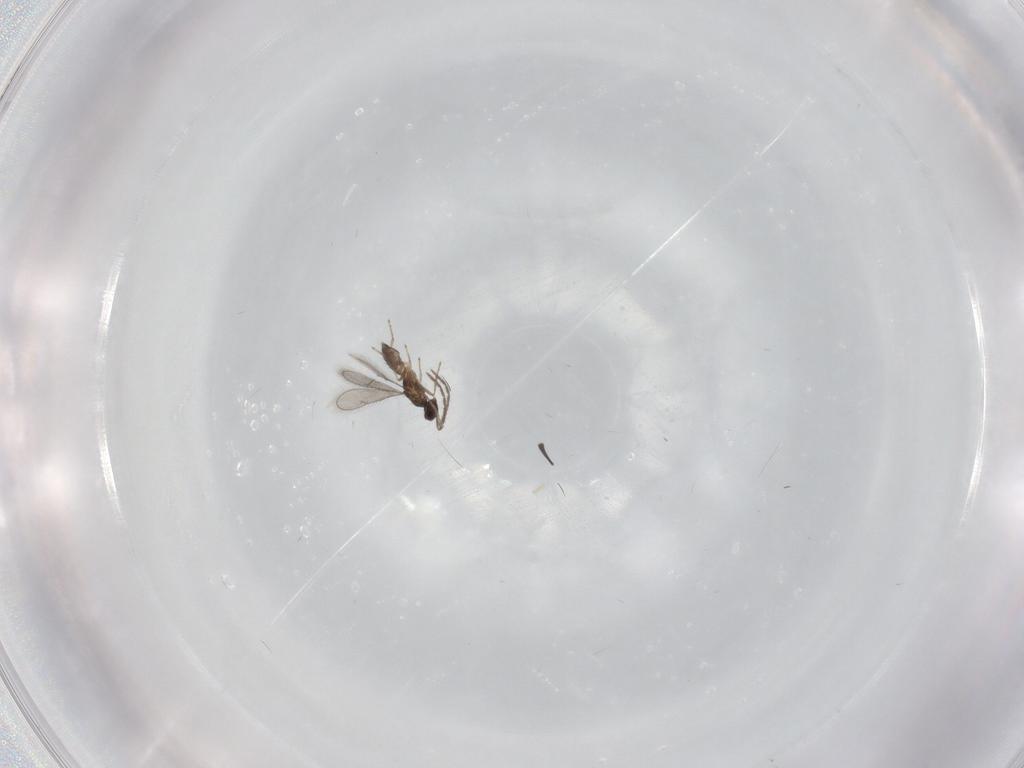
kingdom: Animalia
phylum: Arthropoda
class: Insecta
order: Hymenoptera
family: Eulophidae
